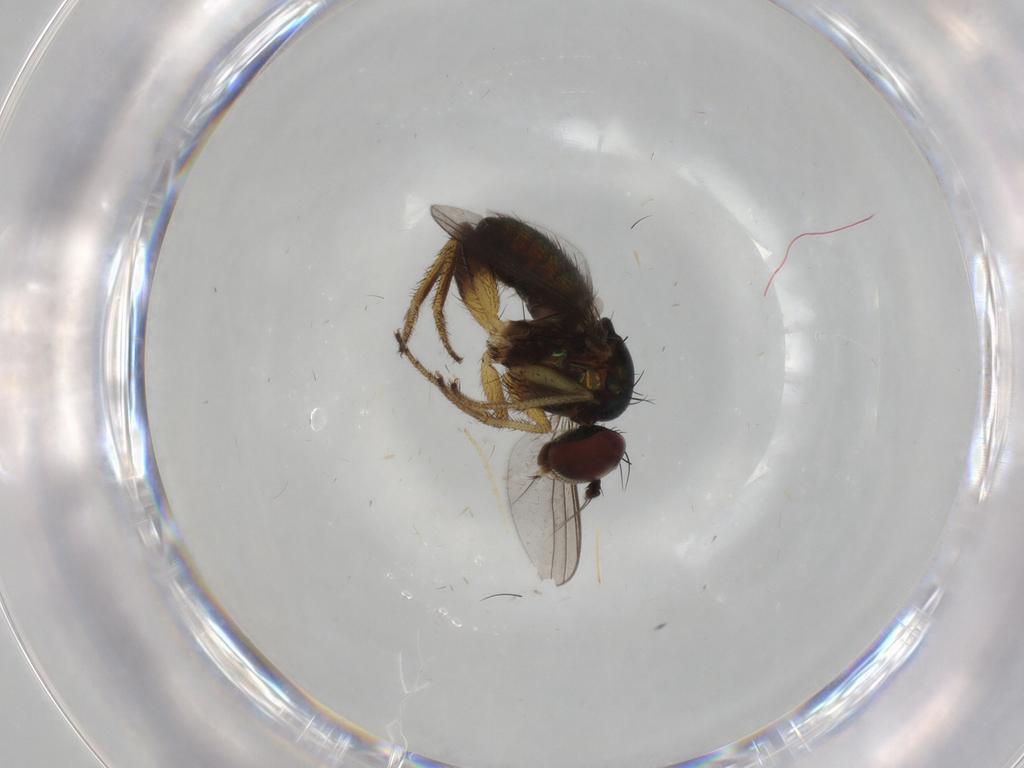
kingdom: Animalia
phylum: Arthropoda
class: Insecta
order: Diptera
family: Dolichopodidae
